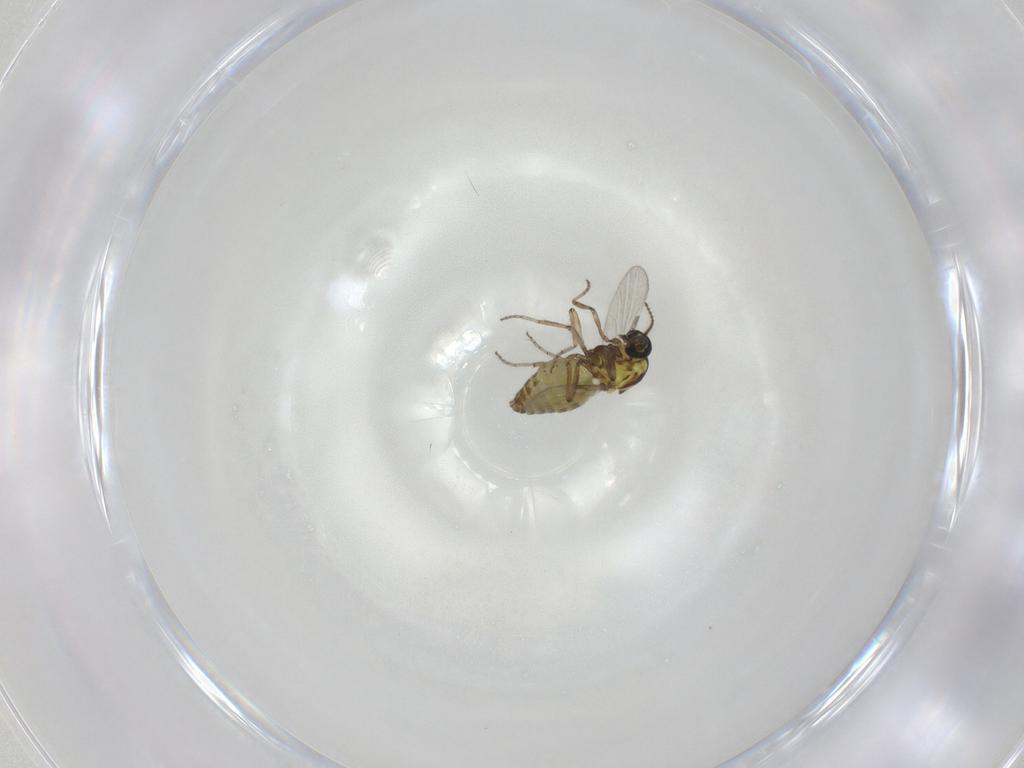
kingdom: Animalia
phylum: Arthropoda
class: Insecta
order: Diptera
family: Ceratopogonidae
